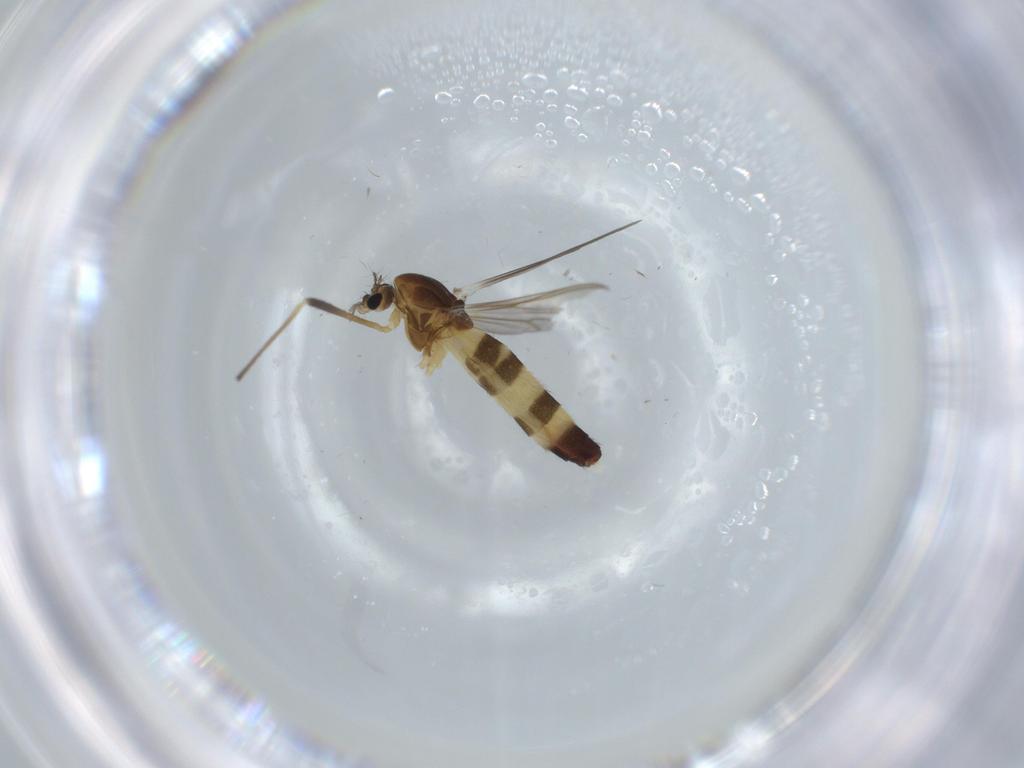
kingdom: Animalia
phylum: Arthropoda
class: Insecta
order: Diptera
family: Chironomidae
